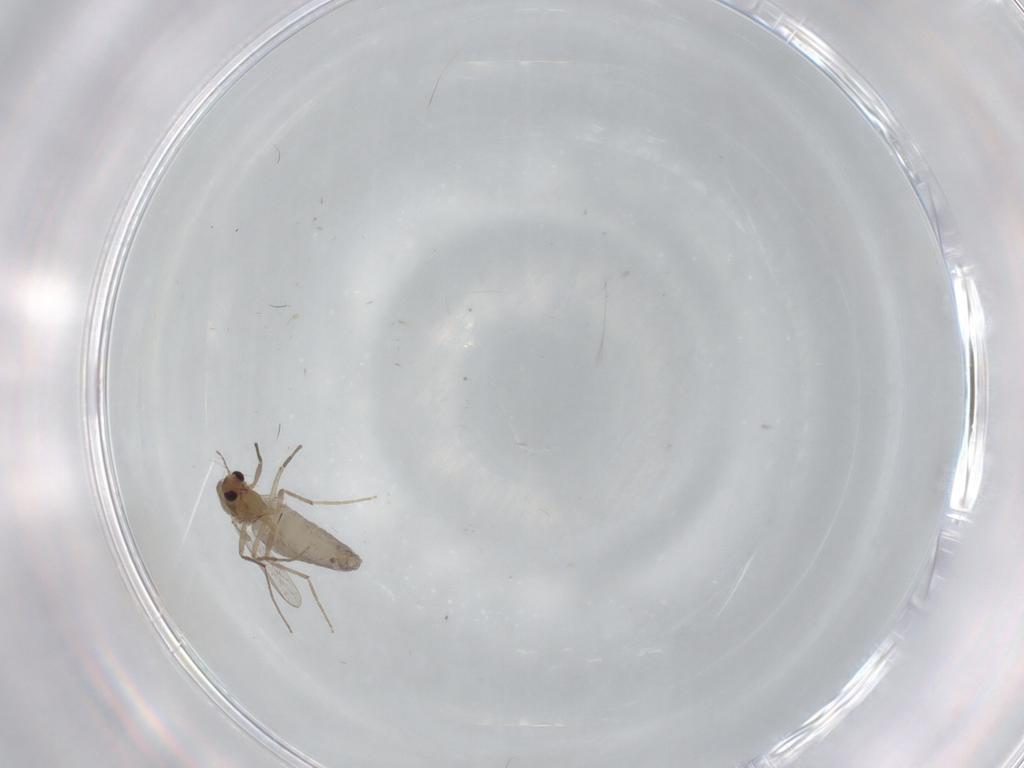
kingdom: Animalia
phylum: Arthropoda
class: Insecta
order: Diptera
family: Chironomidae
